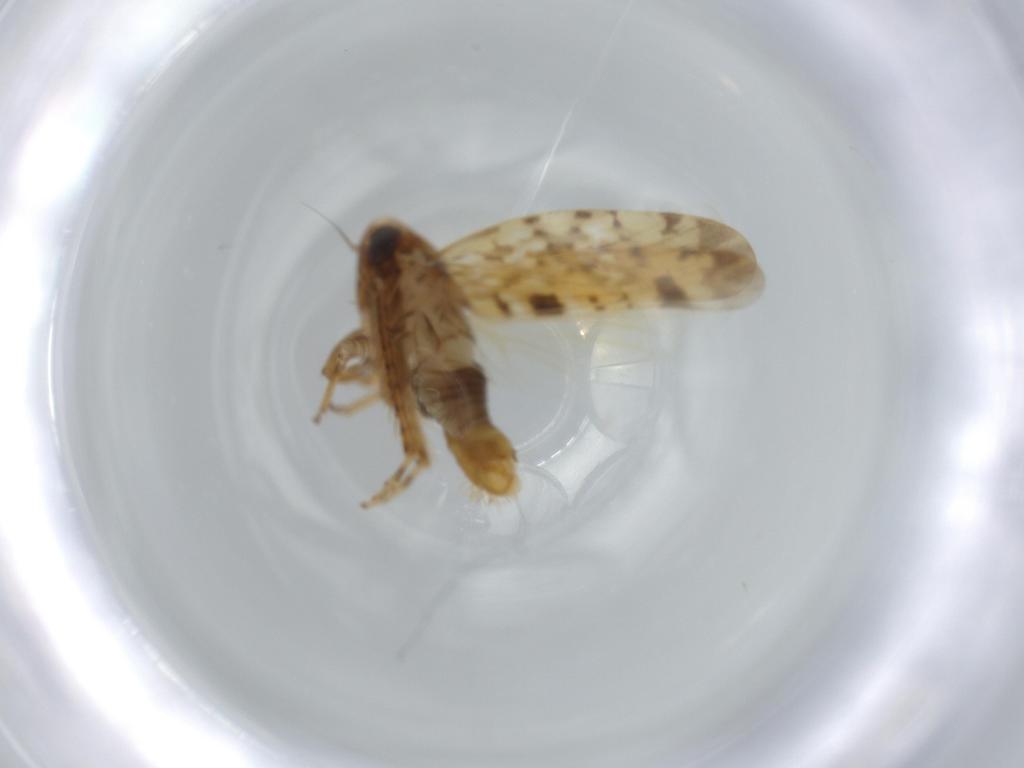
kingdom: Animalia
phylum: Arthropoda
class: Insecta
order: Hemiptera
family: Cicadellidae
